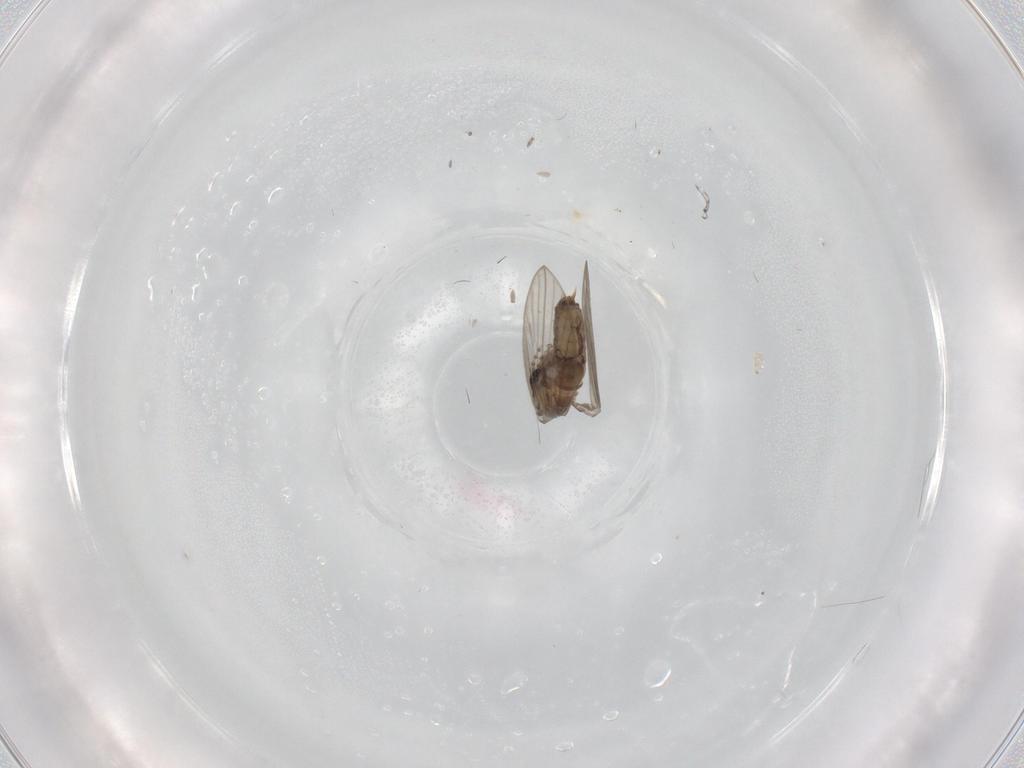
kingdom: Animalia
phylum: Arthropoda
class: Insecta
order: Diptera
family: Psychodidae
